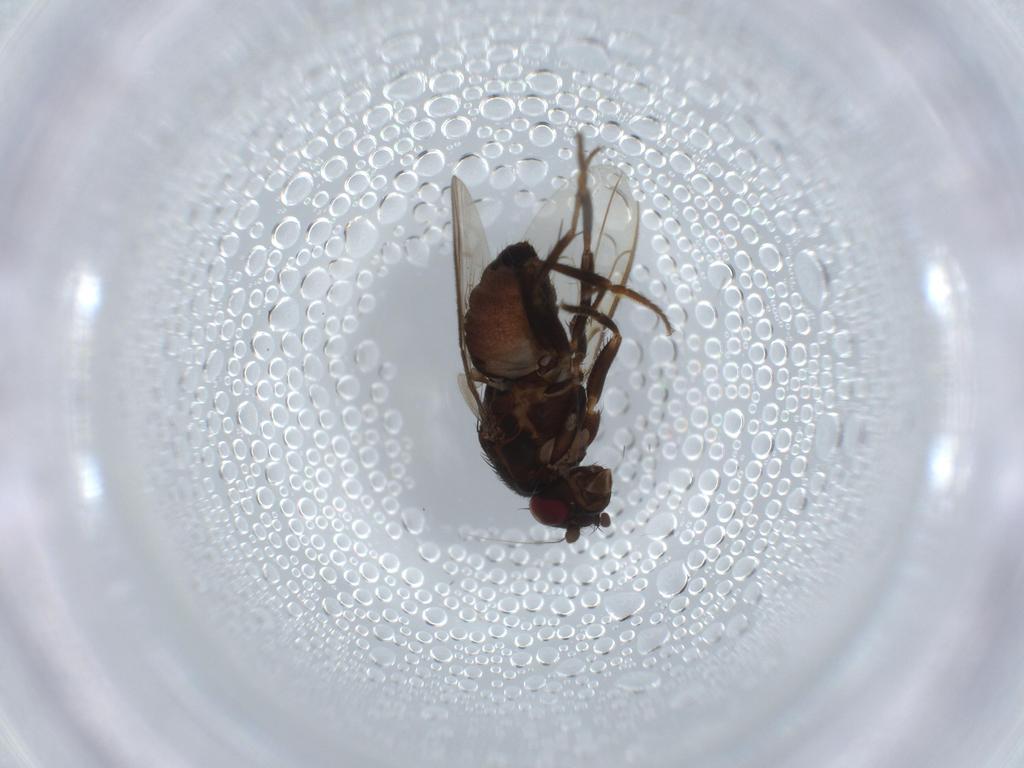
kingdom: Animalia
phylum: Arthropoda
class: Insecta
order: Diptera
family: Sphaeroceridae
